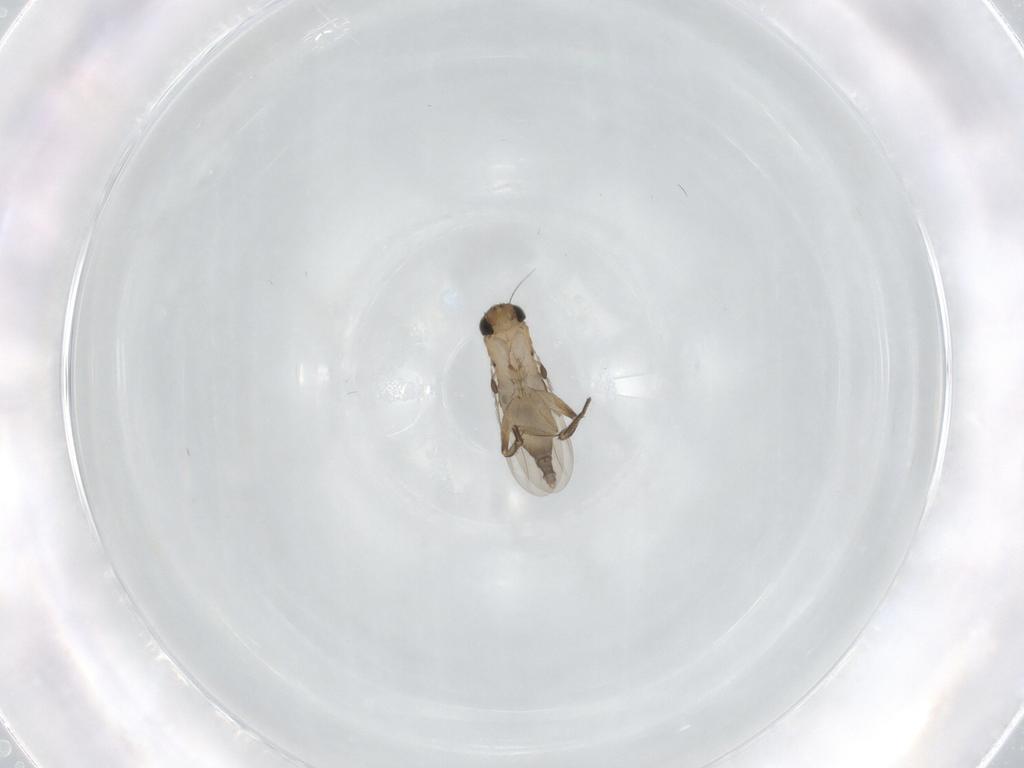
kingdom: Animalia
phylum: Arthropoda
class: Insecta
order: Diptera
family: Phoridae
